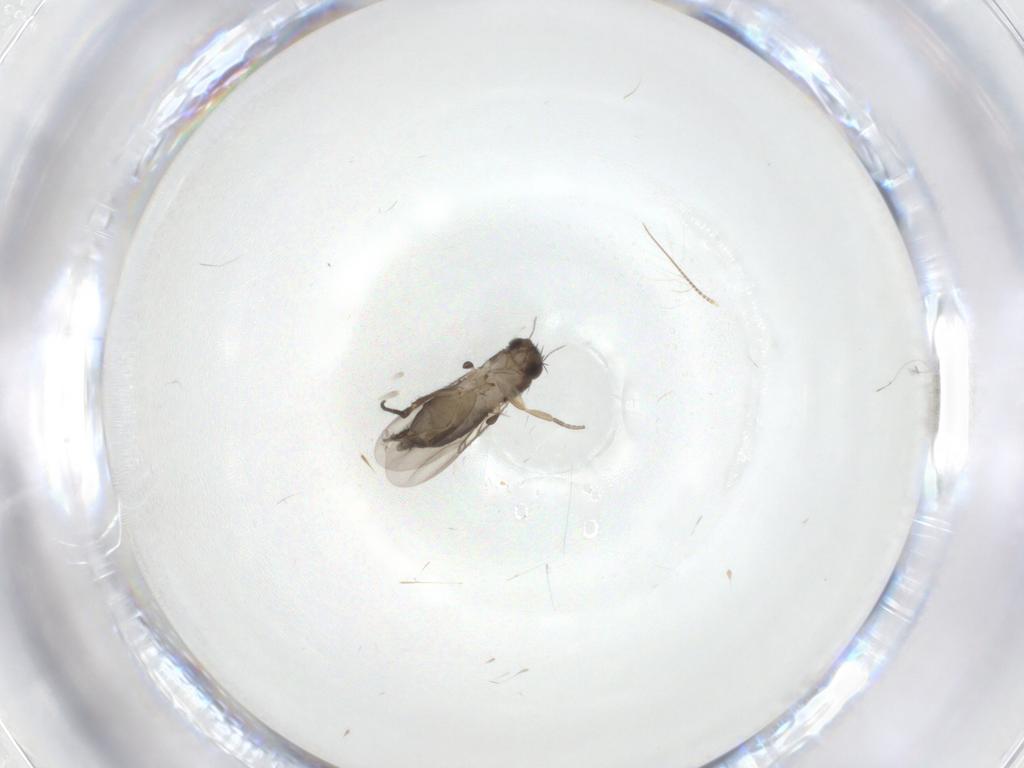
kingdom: Animalia
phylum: Arthropoda
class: Insecta
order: Diptera
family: Phoridae
